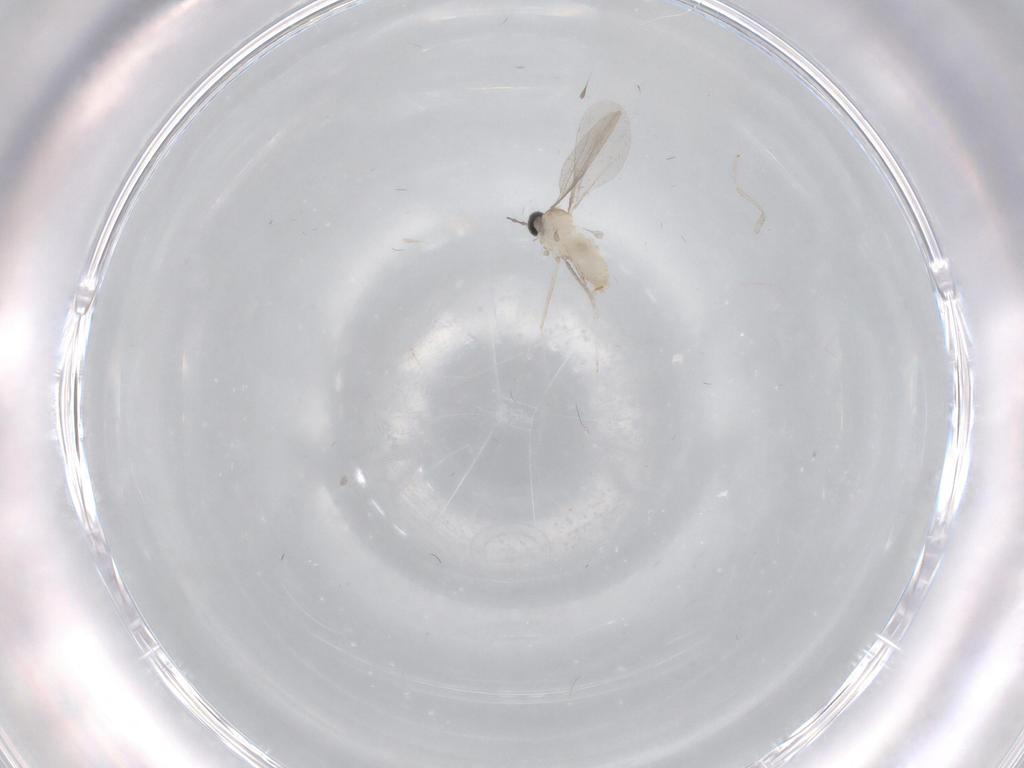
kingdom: Animalia
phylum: Arthropoda
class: Insecta
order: Diptera
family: Cecidomyiidae
